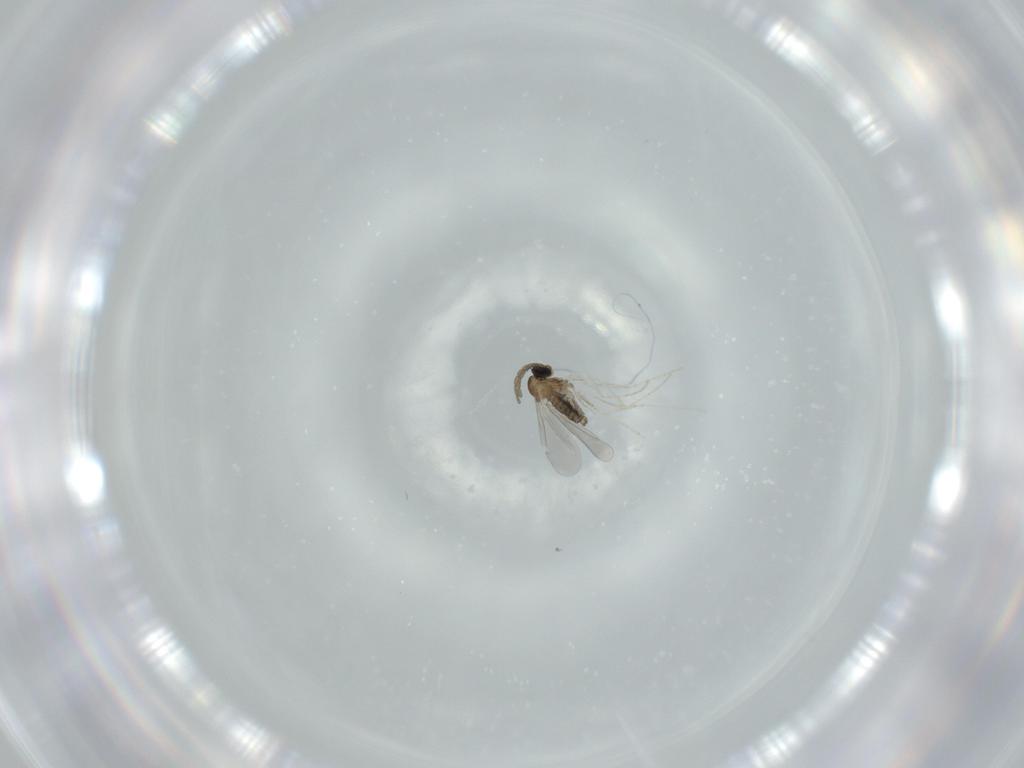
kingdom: Animalia
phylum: Arthropoda
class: Insecta
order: Diptera
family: Cecidomyiidae
